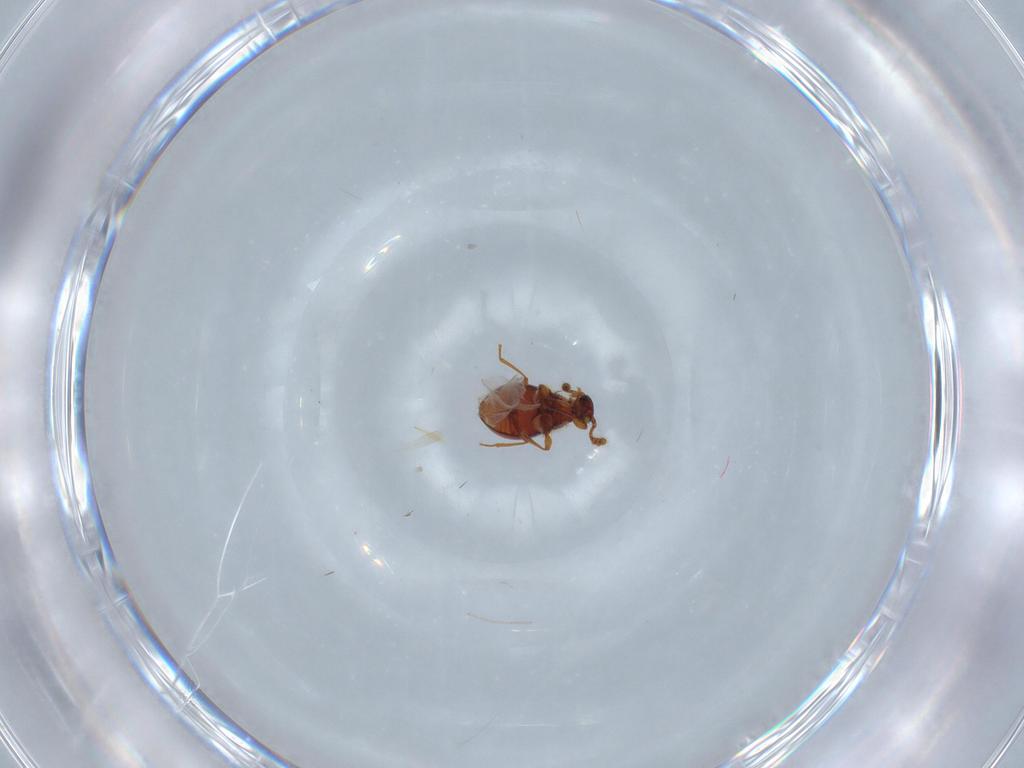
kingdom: Animalia
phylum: Arthropoda
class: Insecta
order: Coleoptera
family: Staphylinidae
